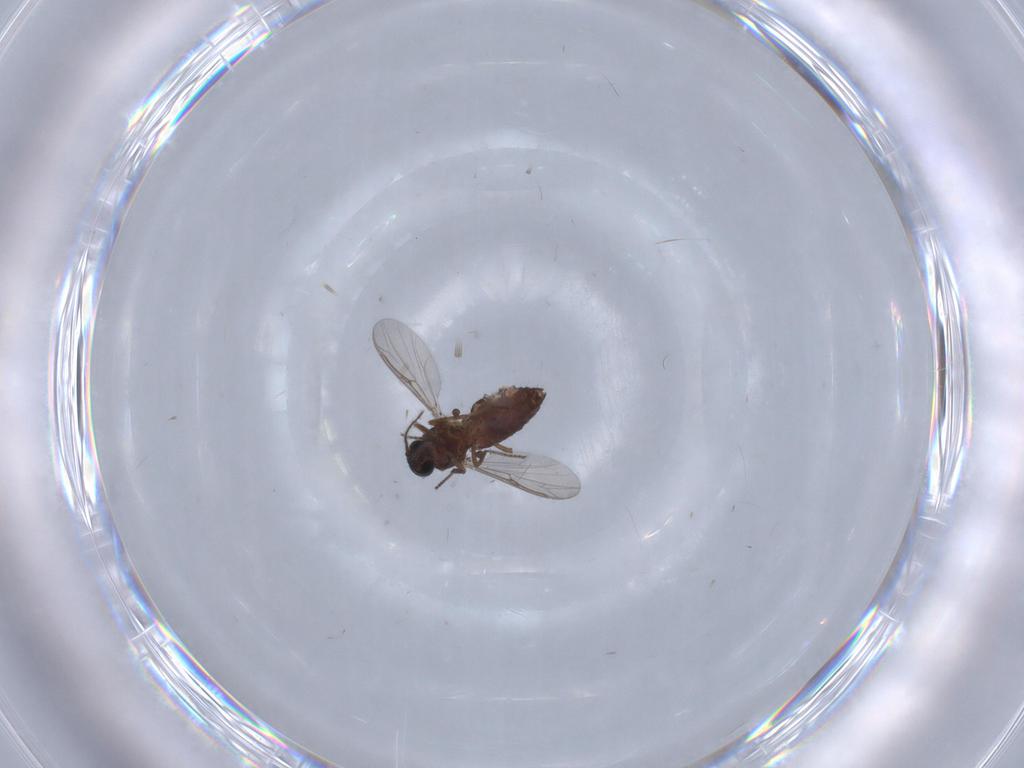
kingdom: Animalia
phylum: Arthropoda
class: Insecta
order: Diptera
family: Ceratopogonidae
